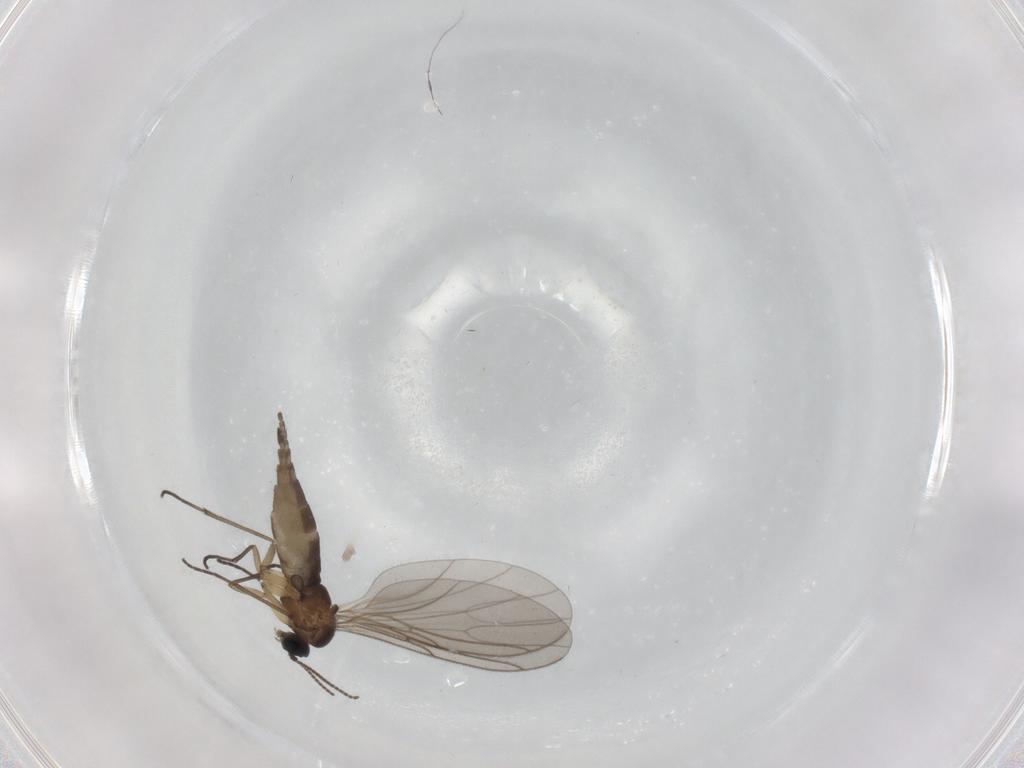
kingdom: Animalia
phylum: Arthropoda
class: Insecta
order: Diptera
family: Sciaridae
